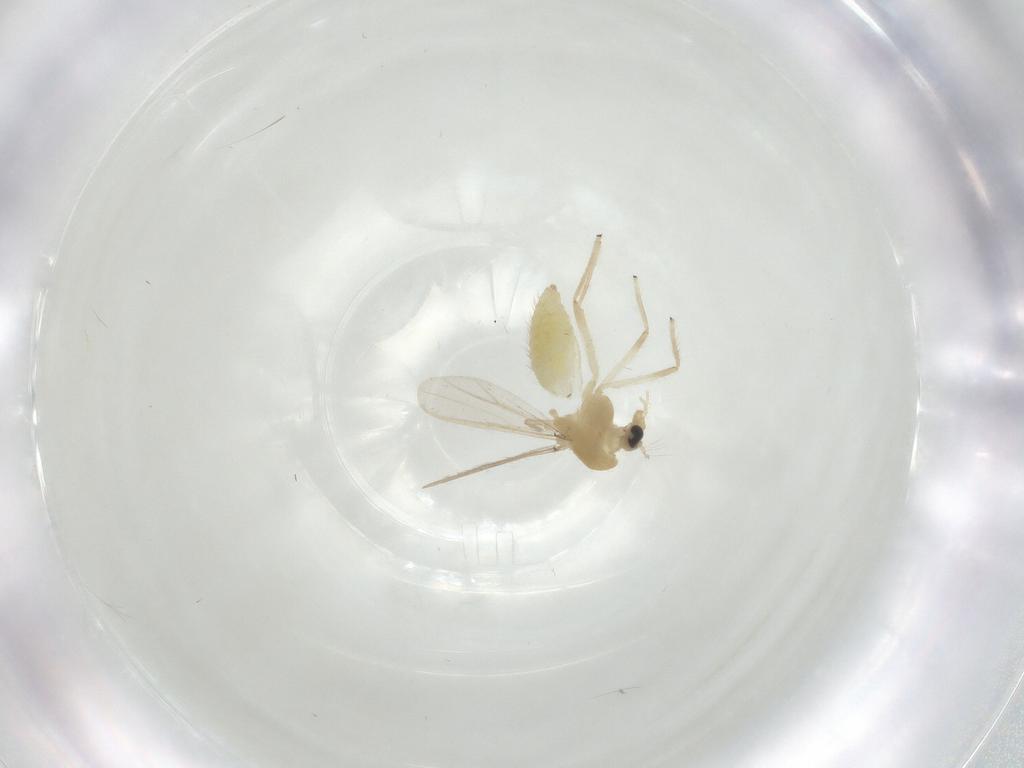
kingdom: Animalia
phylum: Arthropoda
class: Insecta
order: Diptera
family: Chironomidae
